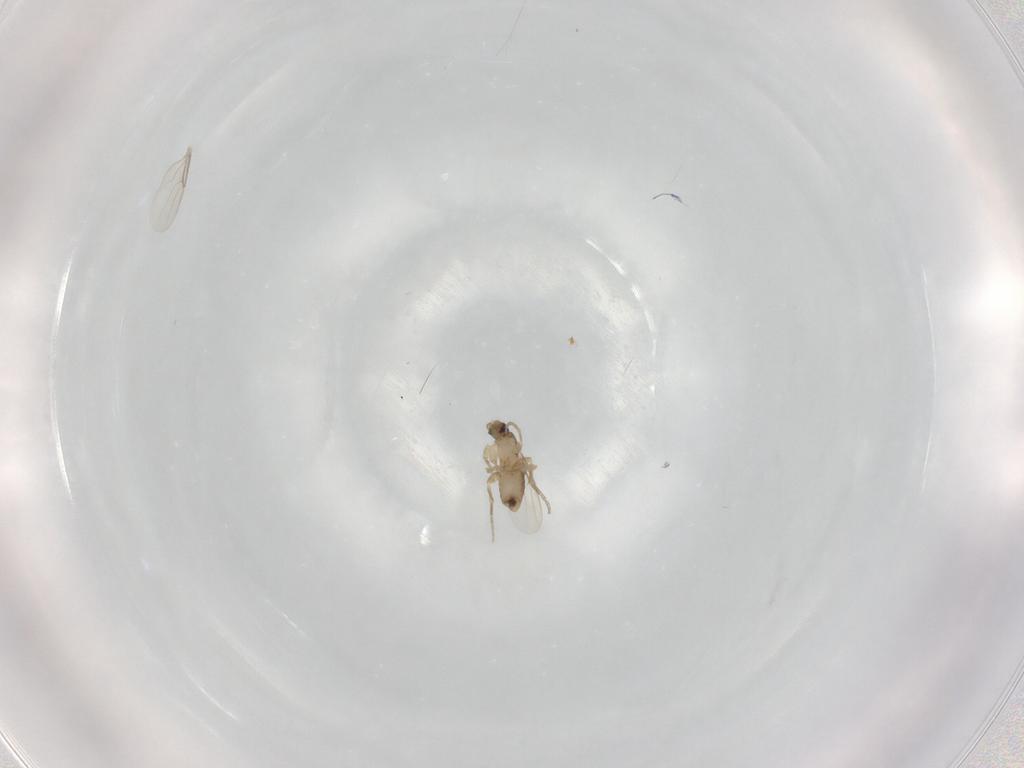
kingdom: Animalia
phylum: Arthropoda
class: Insecta
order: Diptera
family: Phoridae
